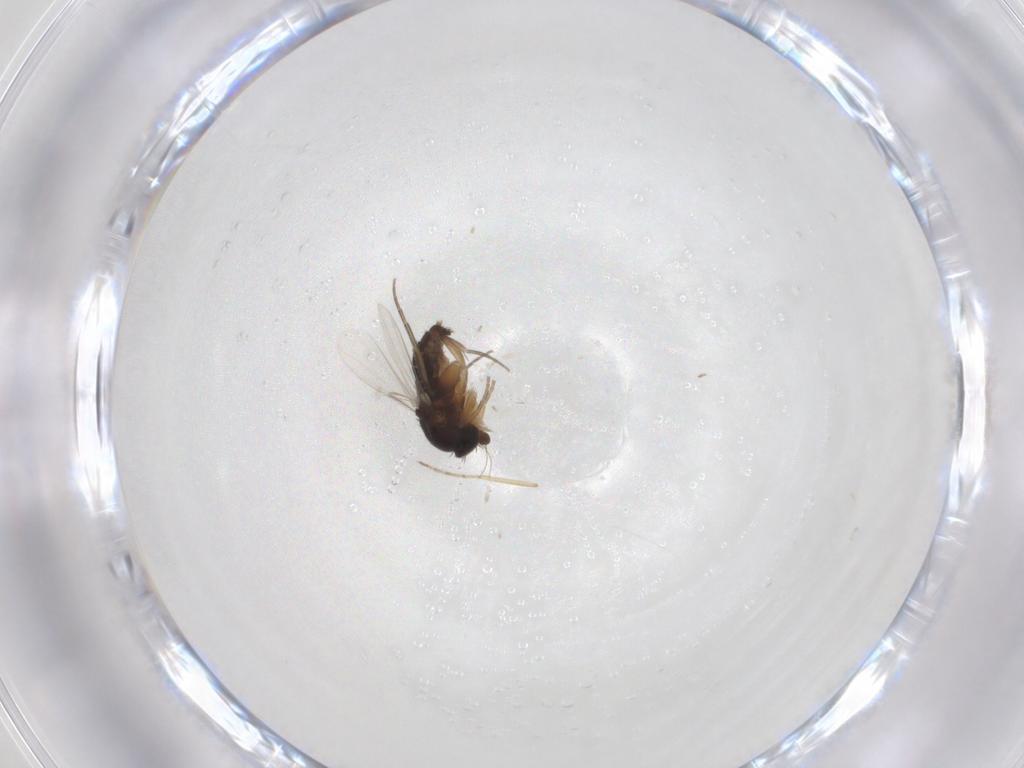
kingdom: Animalia
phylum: Arthropoda
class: Insecta
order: Diptera
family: Phoridae
